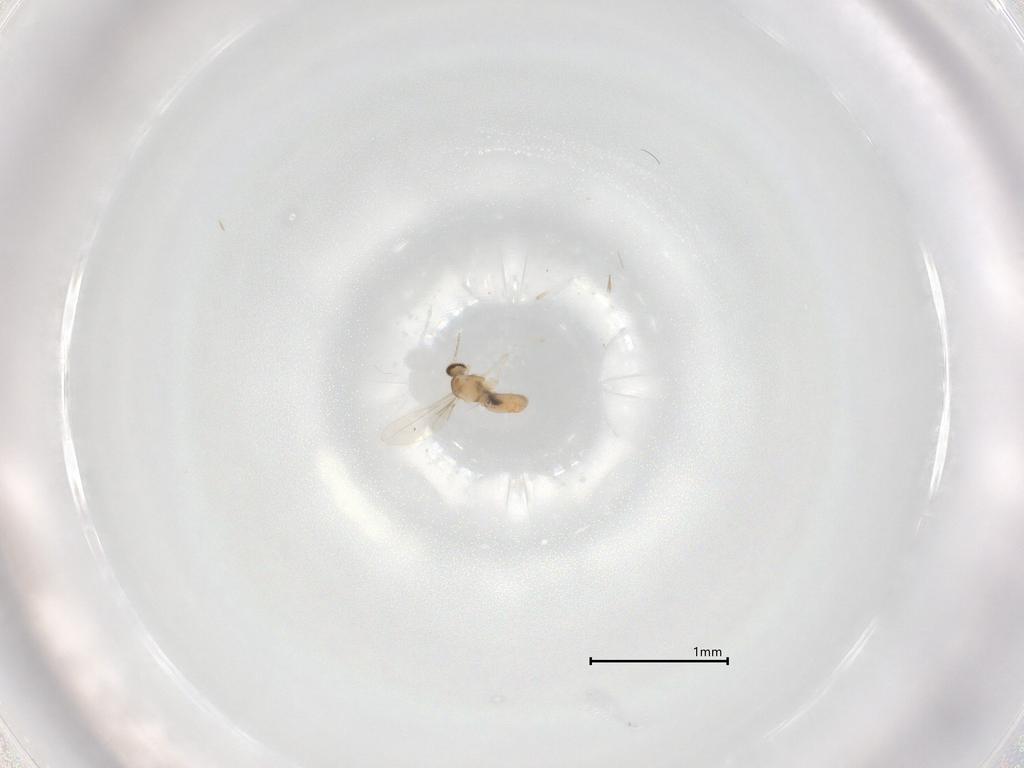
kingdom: Animalia
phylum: Arthropoda
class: Insecta
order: Diptera
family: Cecidomyiidae
